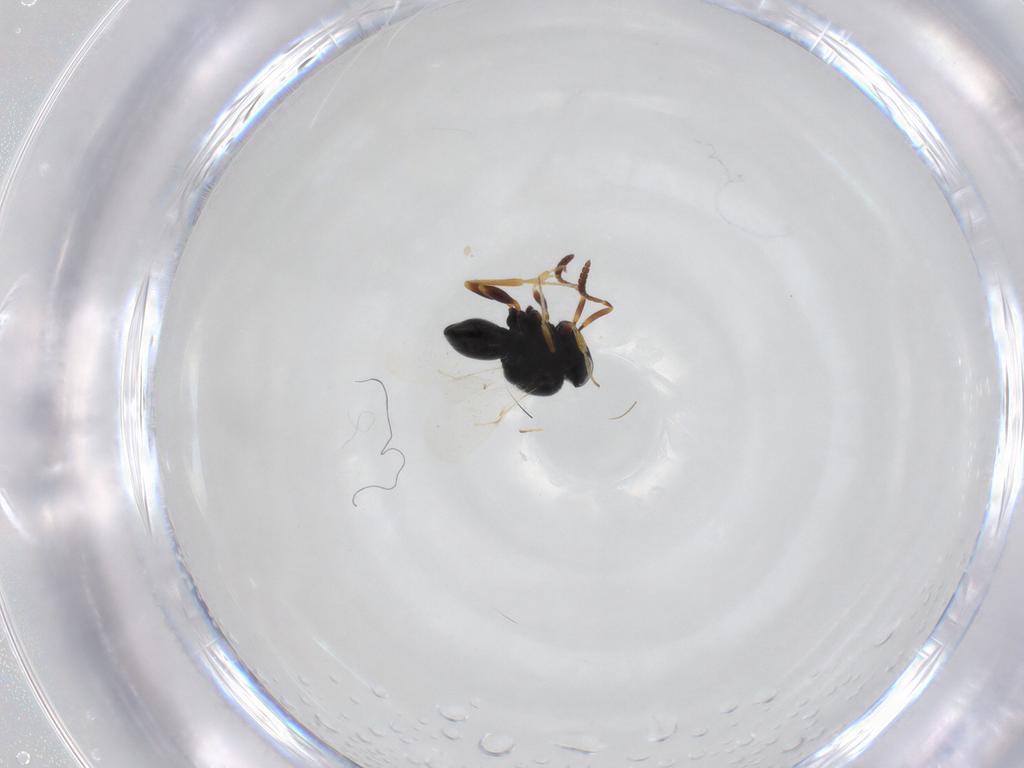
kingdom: Animalia
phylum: Arthropoda
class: Insecta
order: Hymenoptera
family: Scelionidae
